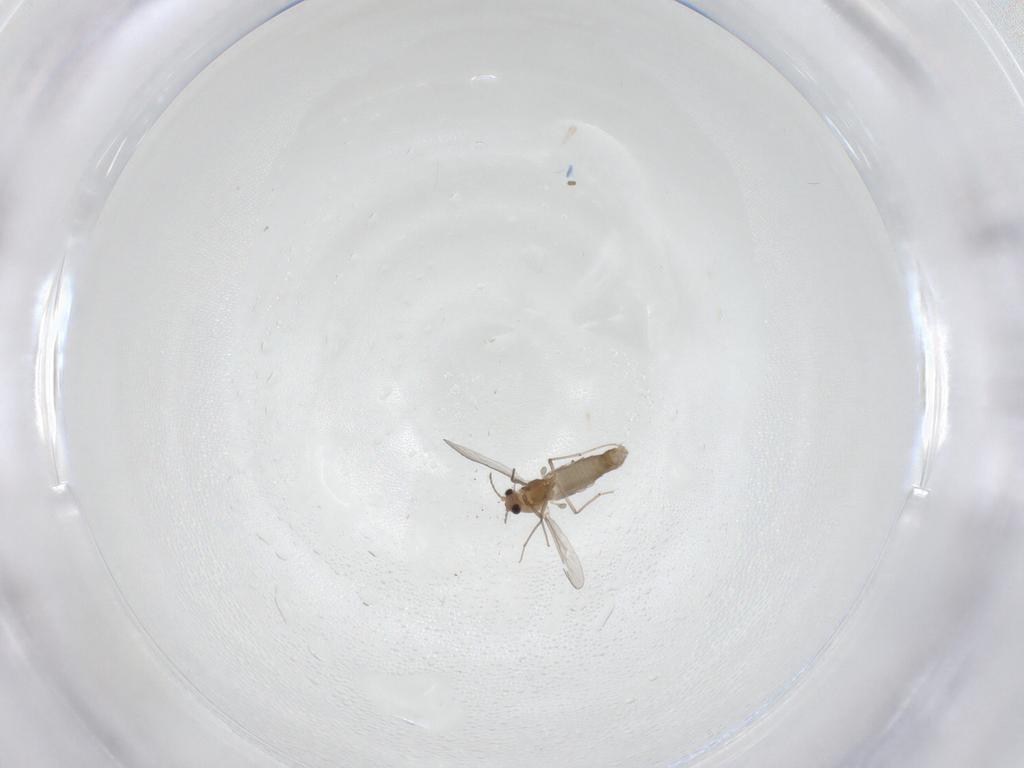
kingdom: Animalia
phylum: Arthropoda
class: Insecta
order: Diptera
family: Chironomidae
